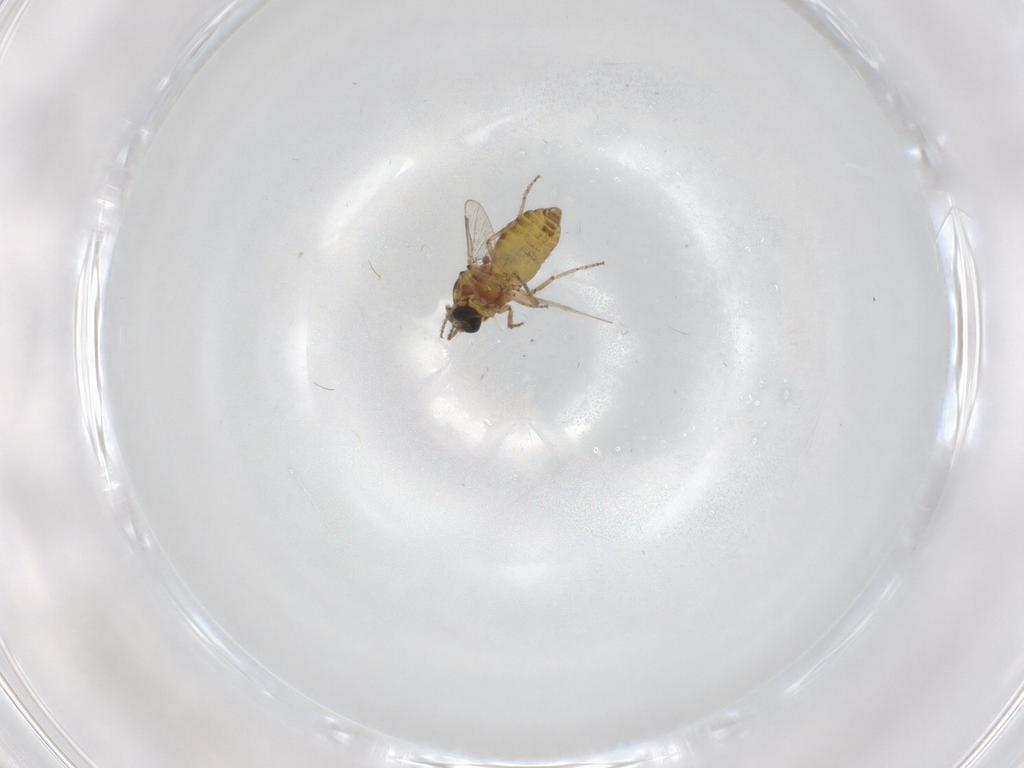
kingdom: Animalia
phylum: Arthropoda
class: Insecta
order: Diptera
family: Ceratopogonidae
